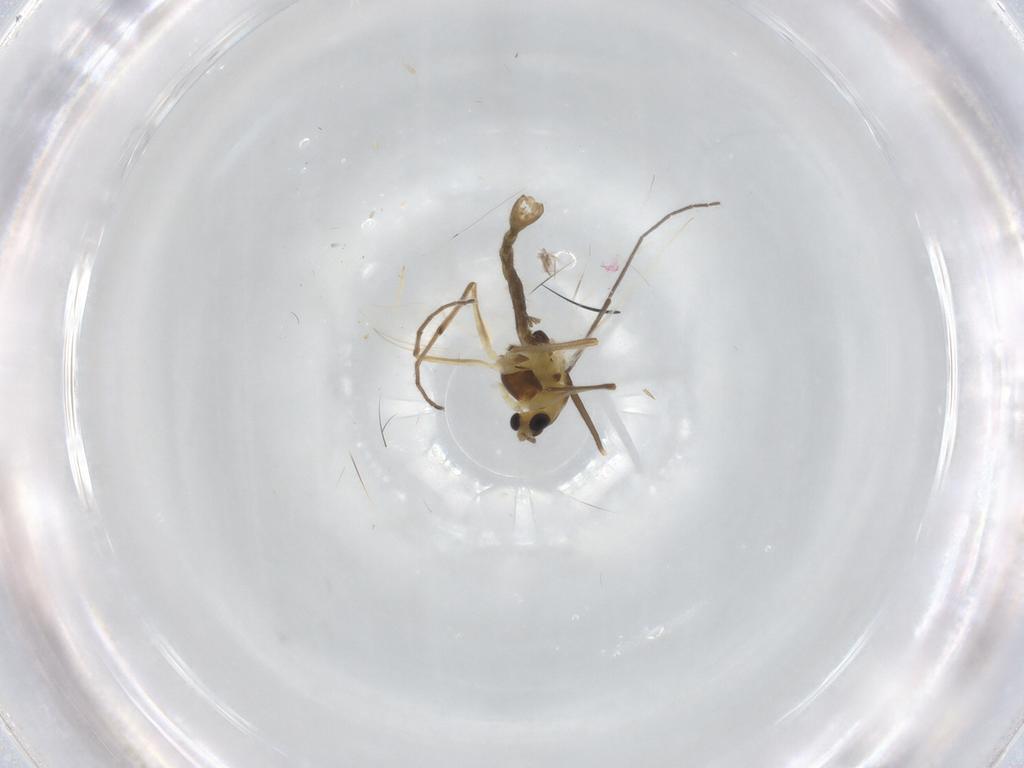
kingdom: Animalia
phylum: Arthropoda
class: Insecta
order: Diptera
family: Chironomidae
